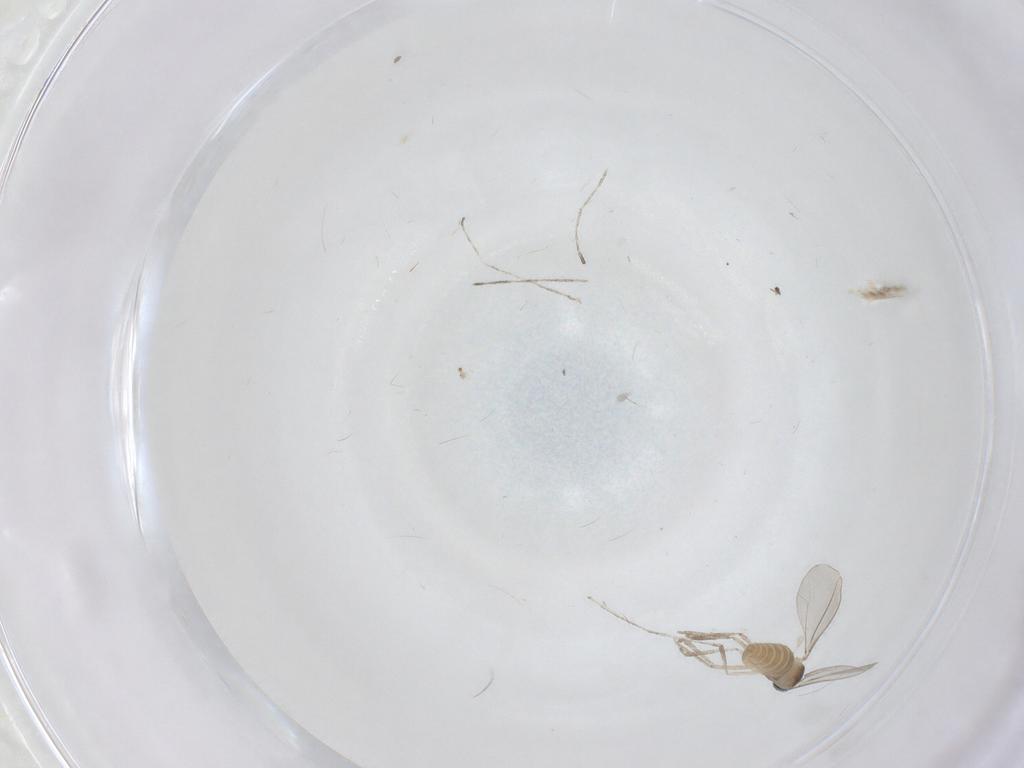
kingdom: Animalia
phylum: Arthropoda
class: Insecta
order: Diptera
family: Cecidomyiidae
